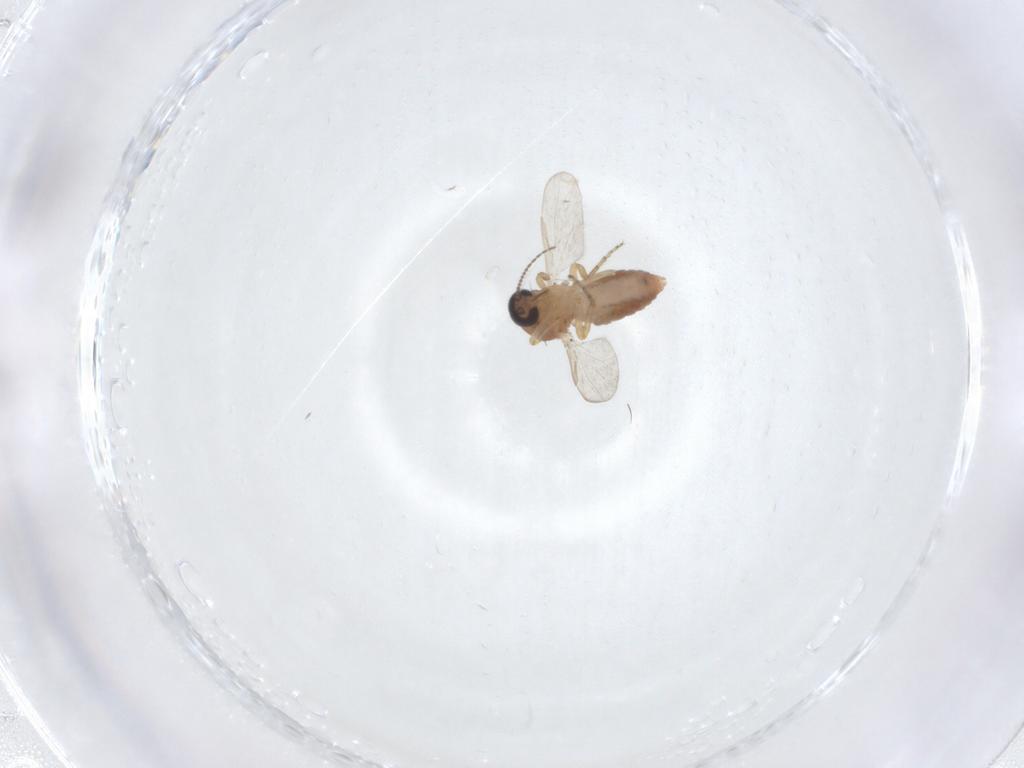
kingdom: Animalia
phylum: Arthropoda
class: Insecta
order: Diptera
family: Ceratopogonidae
